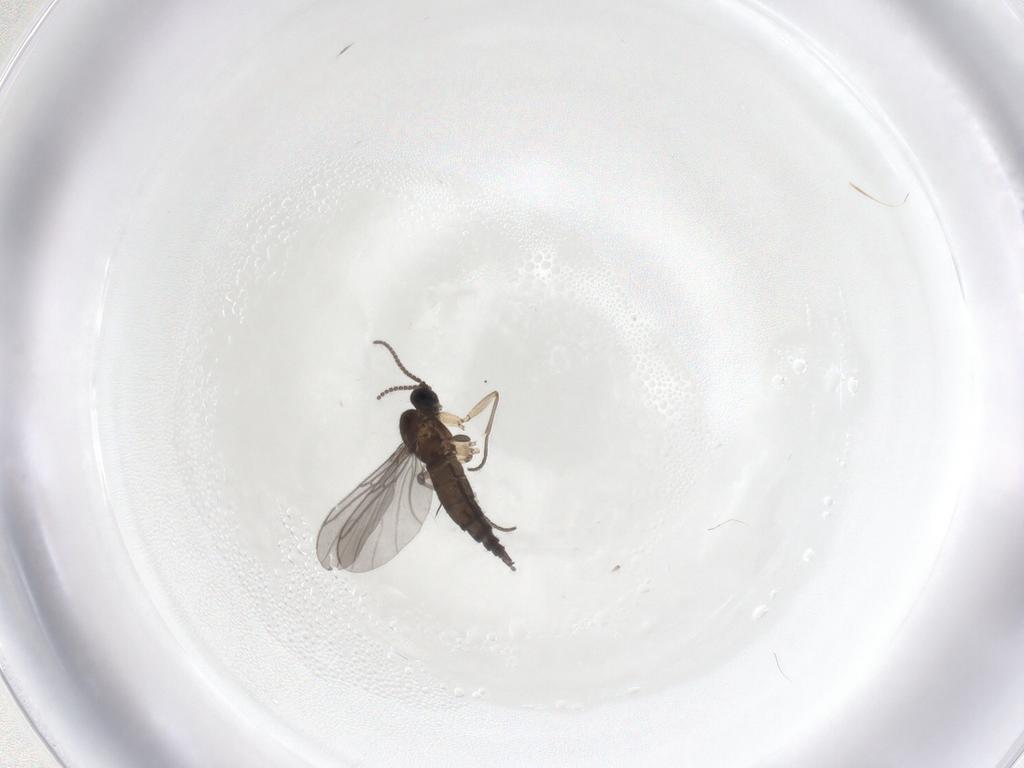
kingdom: Animalia
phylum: Arthropoda
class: Insecta
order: Diptera
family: Sciaridae
